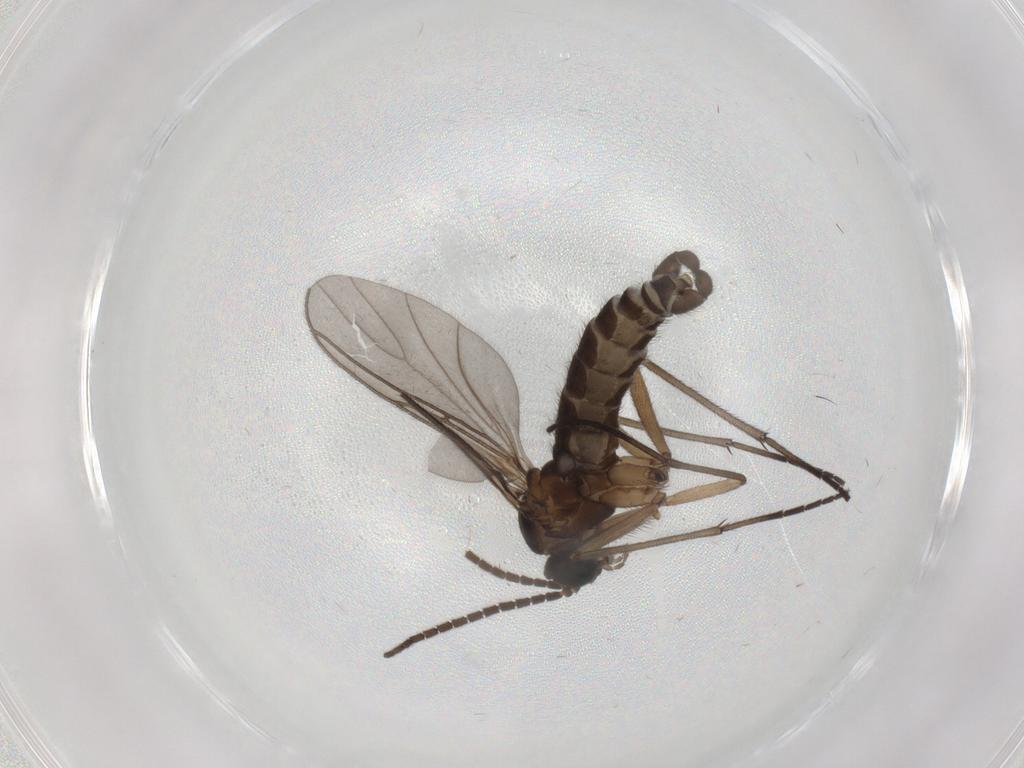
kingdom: Animalia
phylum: Arthropoda
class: Insecta
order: Diptera
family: Sciaridae
